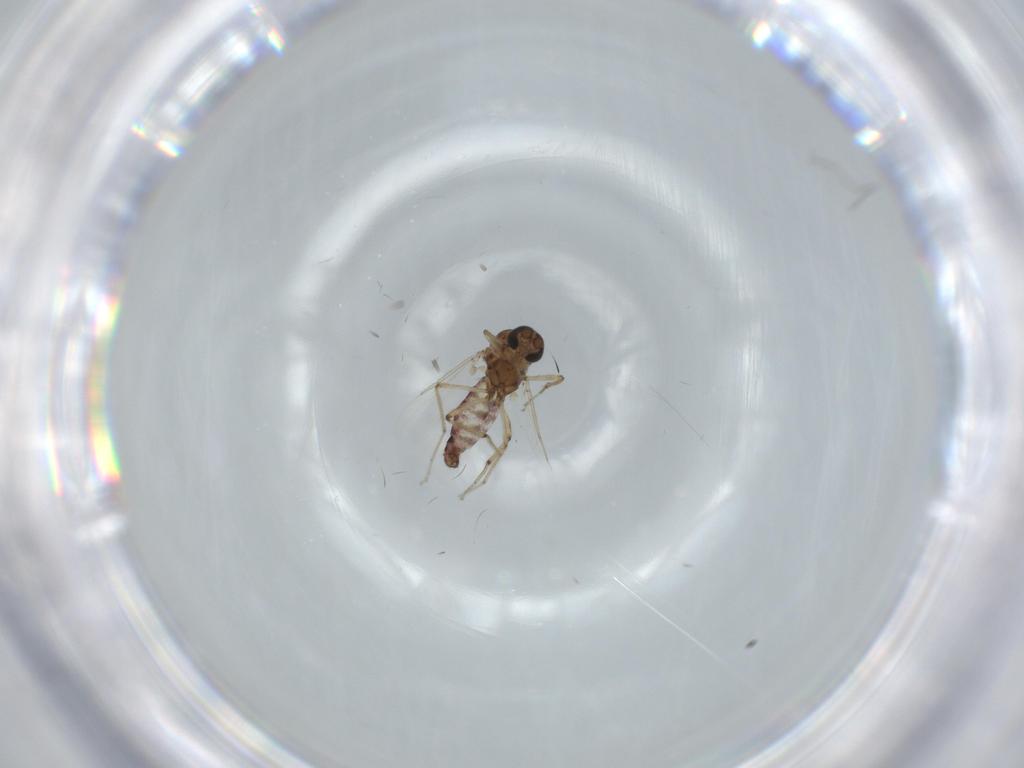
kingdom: Animalia
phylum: Arthropoda
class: Insecta
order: Diptera
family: Ceratopogonidae
